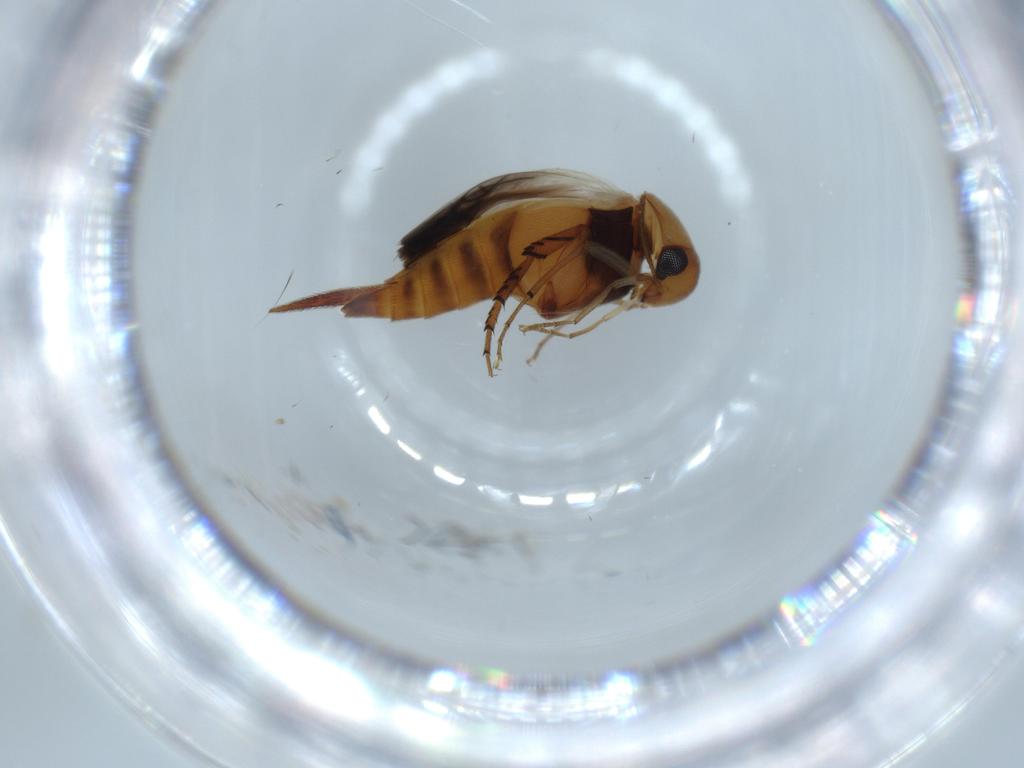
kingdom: Animalia
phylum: Arthropoda
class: Insecta
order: Coleoptera
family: Mordellidae
